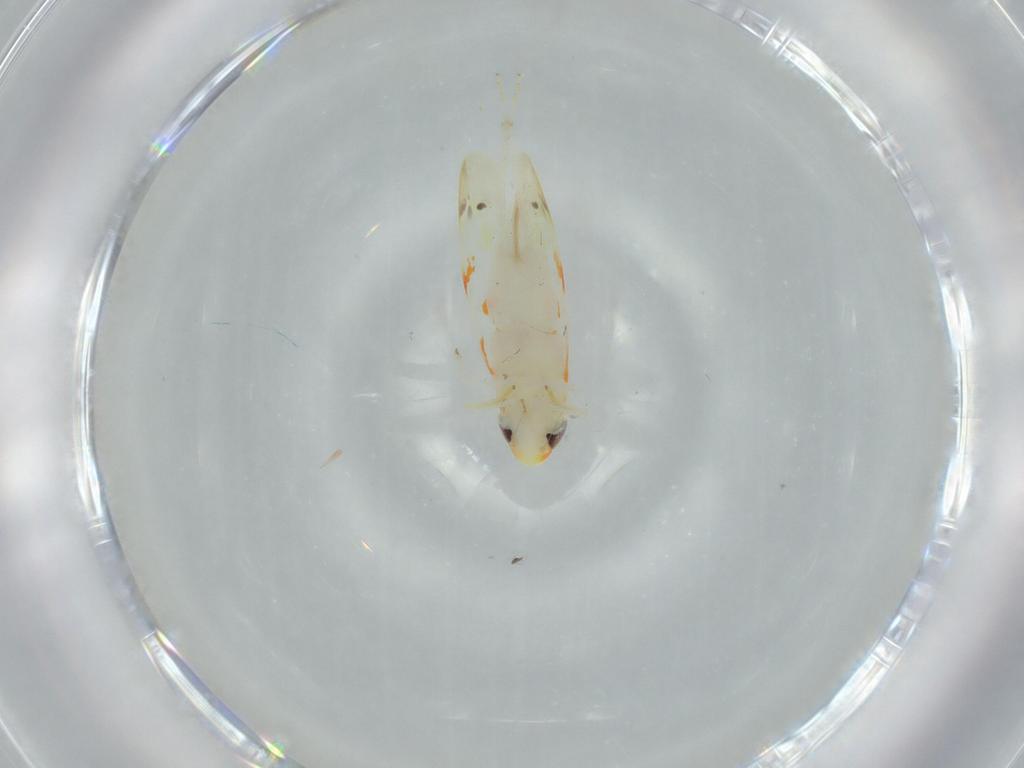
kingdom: Animalia
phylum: Arthropoda
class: Insecta
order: Hemiptera
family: Cicadellidae
